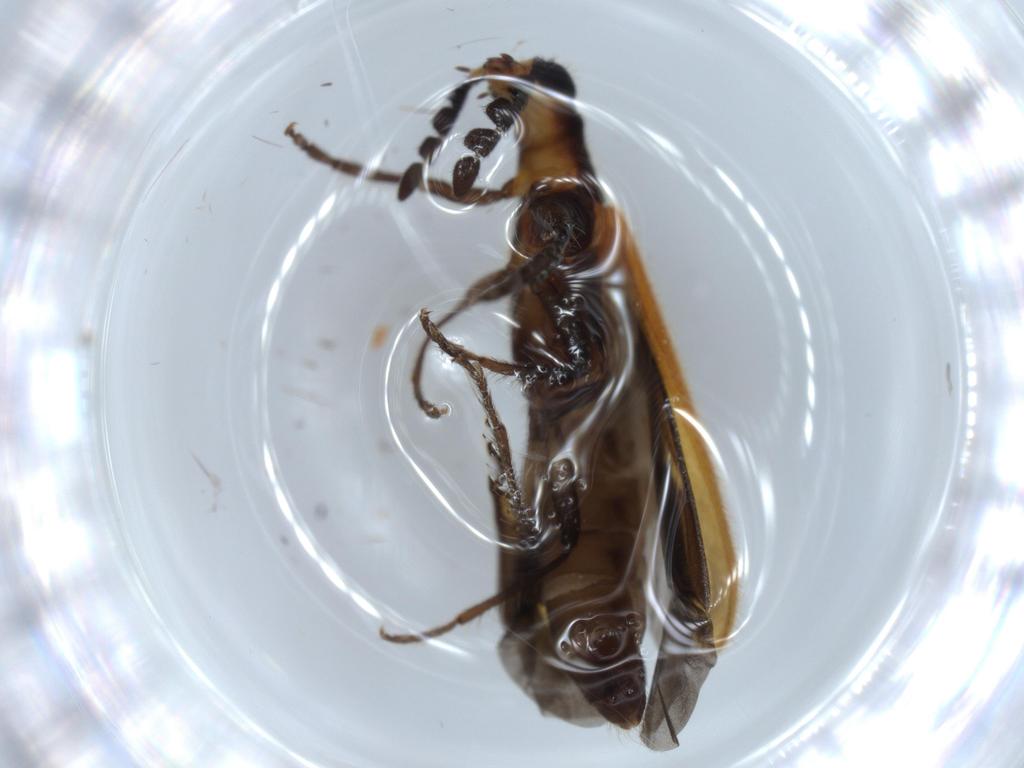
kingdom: Animalia
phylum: Arthropoda
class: Insecta
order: Coleoptera
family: Cleridae
